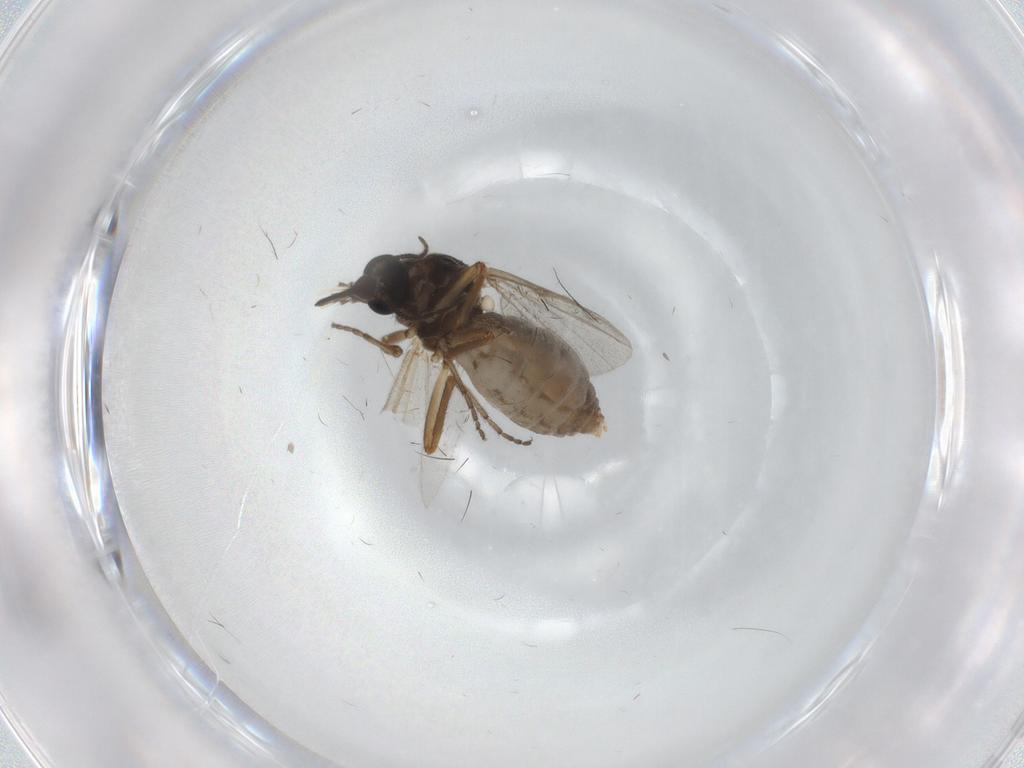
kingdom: Animalia
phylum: Arthropoda
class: Insecta
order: Diptera
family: Ceratopogonidae
